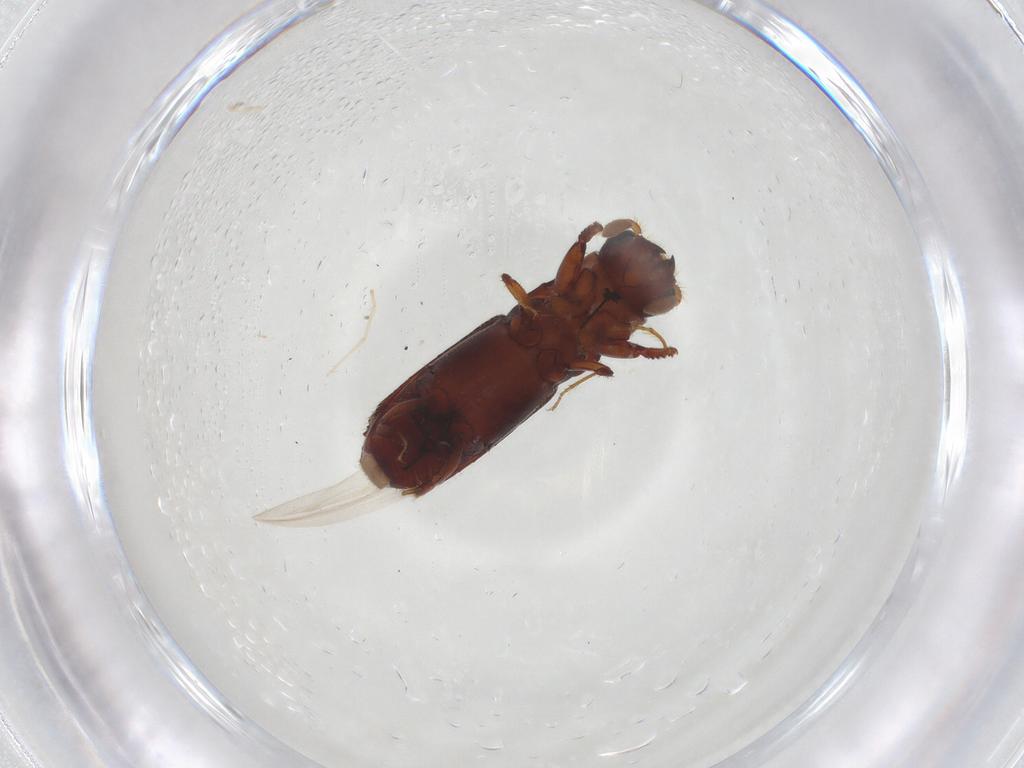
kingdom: Animalia
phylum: Arthropoda
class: Insecta
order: Coleoptera
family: Curculionidae
